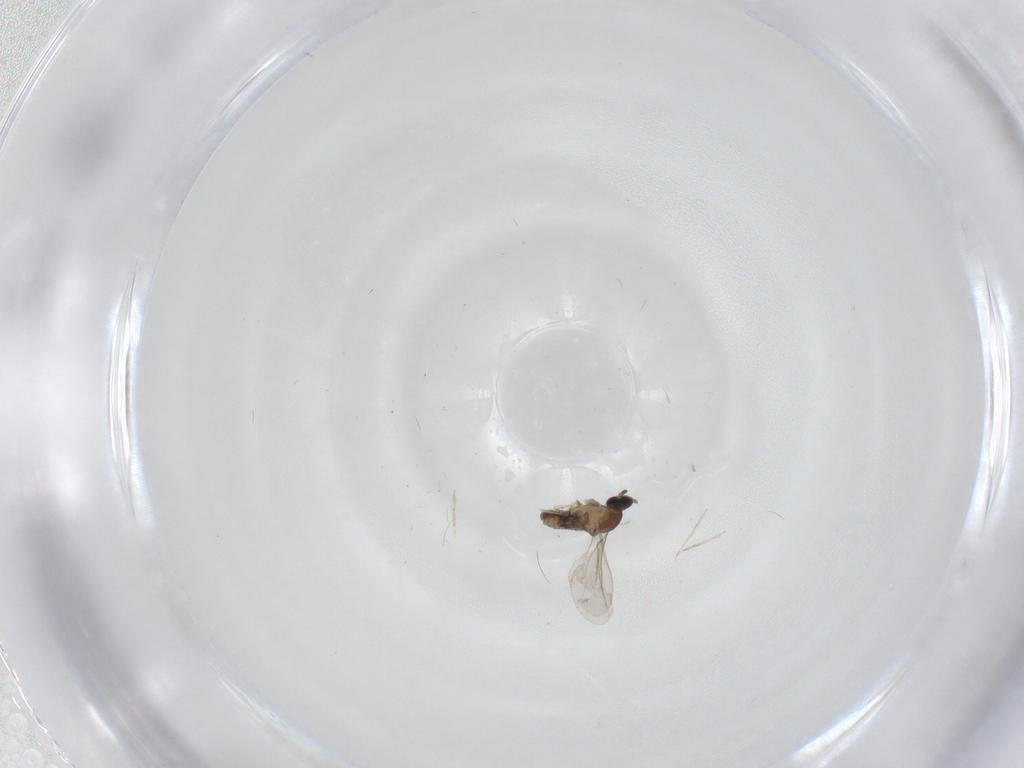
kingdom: Animalia
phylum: Arthropoda
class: Insecta
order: Diptera
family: Cecidomyiidae
